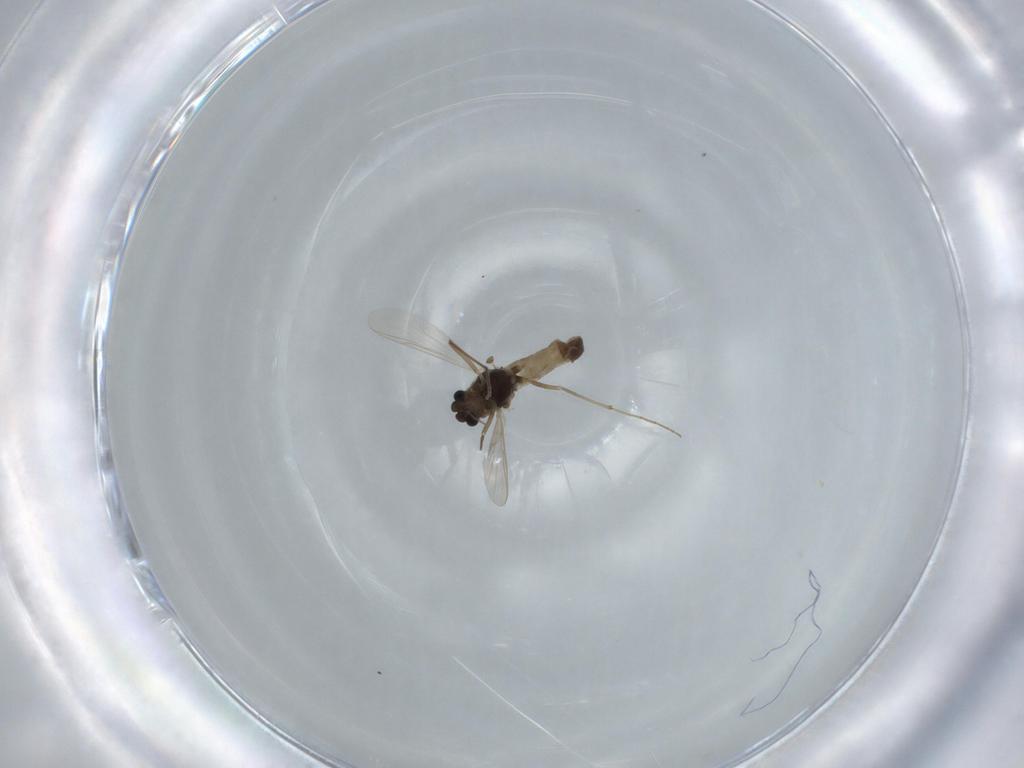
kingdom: Animalia
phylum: Arthropoda
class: Insecta
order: Diptera
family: Chironomidae
